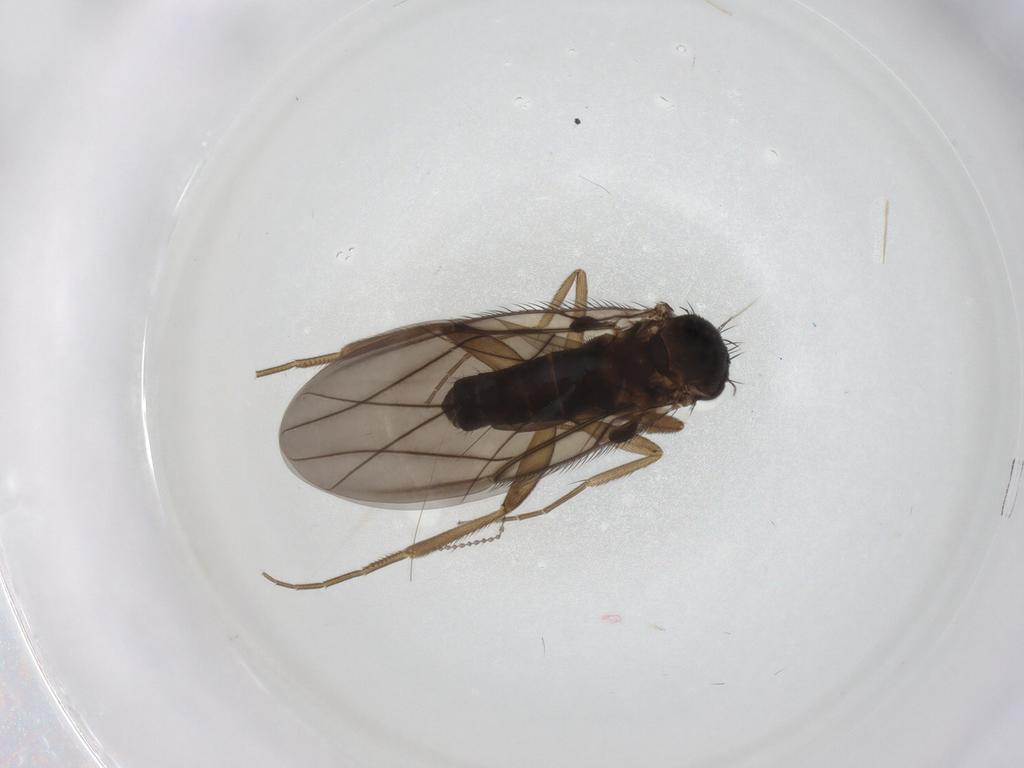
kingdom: Animalia
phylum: Arthropoda
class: Insecta
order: Diptera
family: Phoridae
